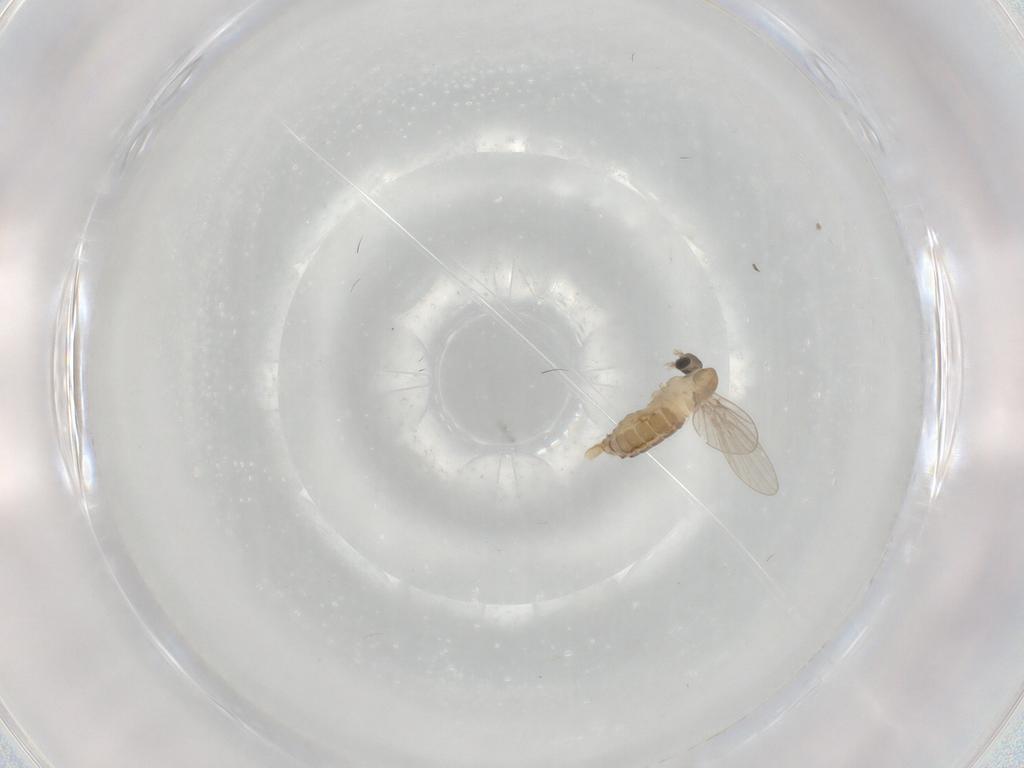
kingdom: Animalia
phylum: Arthropoda
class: Insecta
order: Diptera
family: Psychodidae
